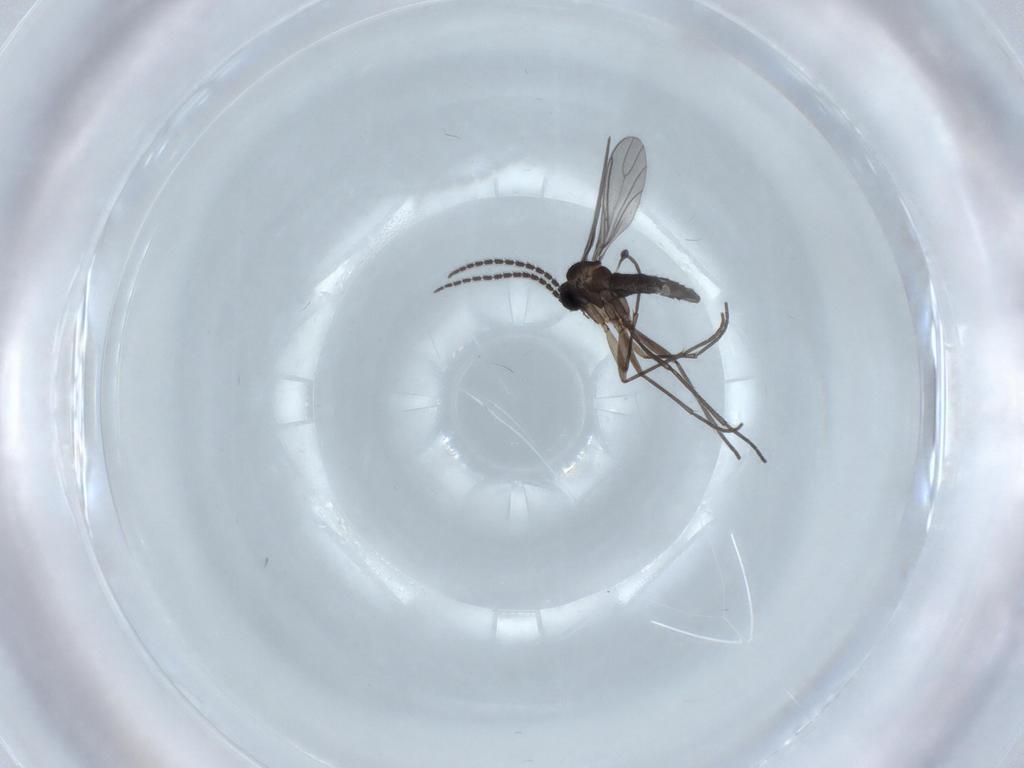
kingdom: Animalia
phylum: Arthropoda
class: Insecta
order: Diptera
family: Sciaridae
